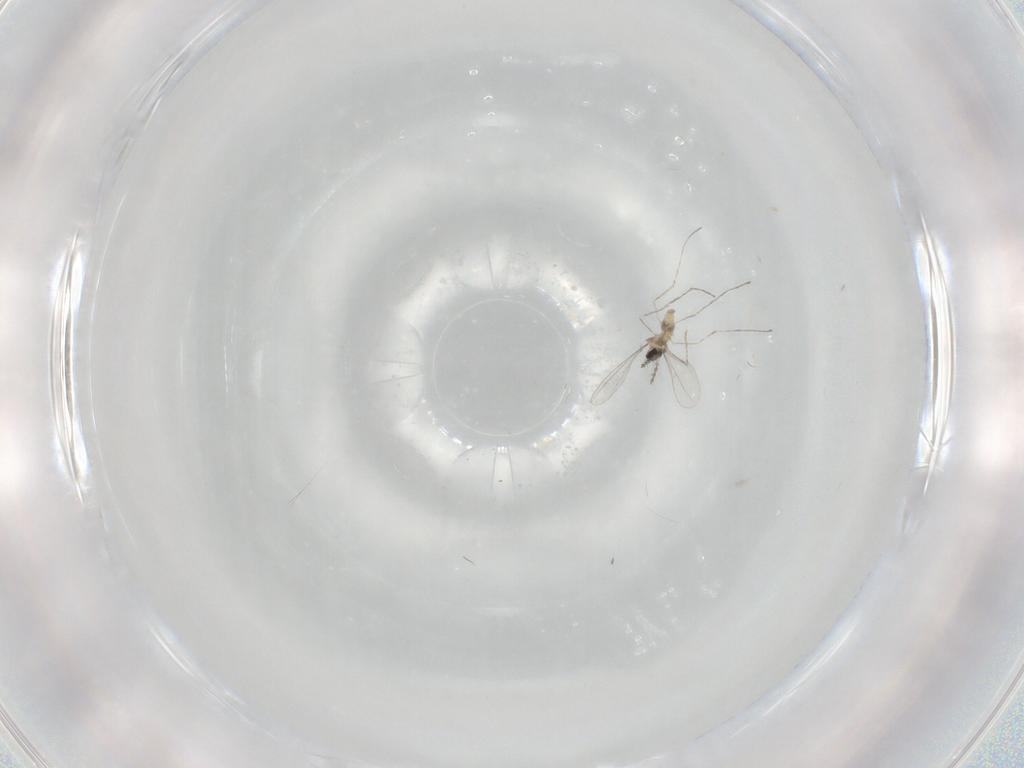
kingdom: Animalia
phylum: Arthropoda
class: Insecta
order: Diptera
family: Cecidomyiidae
